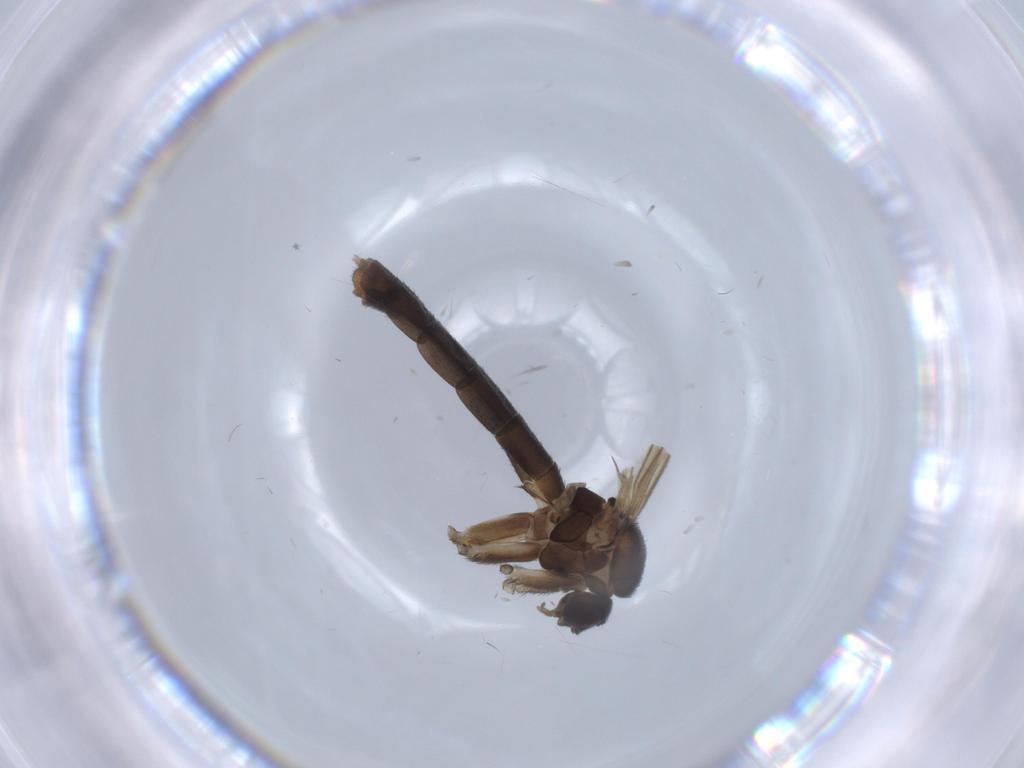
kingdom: Animalia
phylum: Arthropoda
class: Insecta
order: Diptera
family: Keroplatidae
